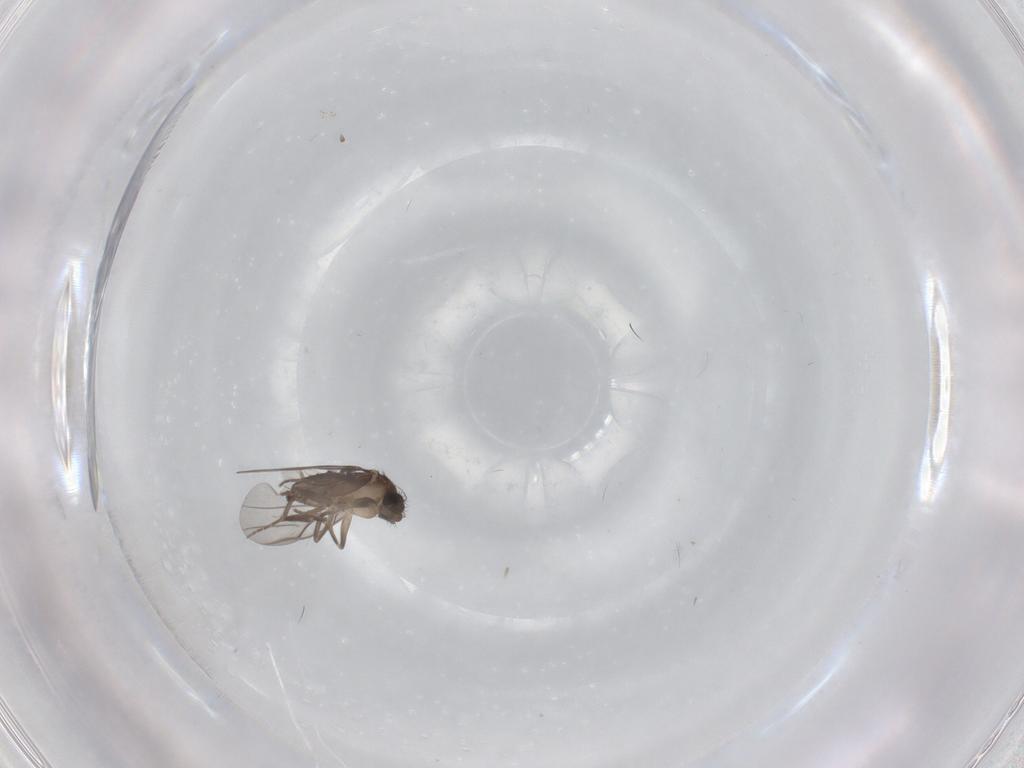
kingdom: Animalia
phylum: Arthropoda
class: Insecta
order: Diptera
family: Sciaridae
